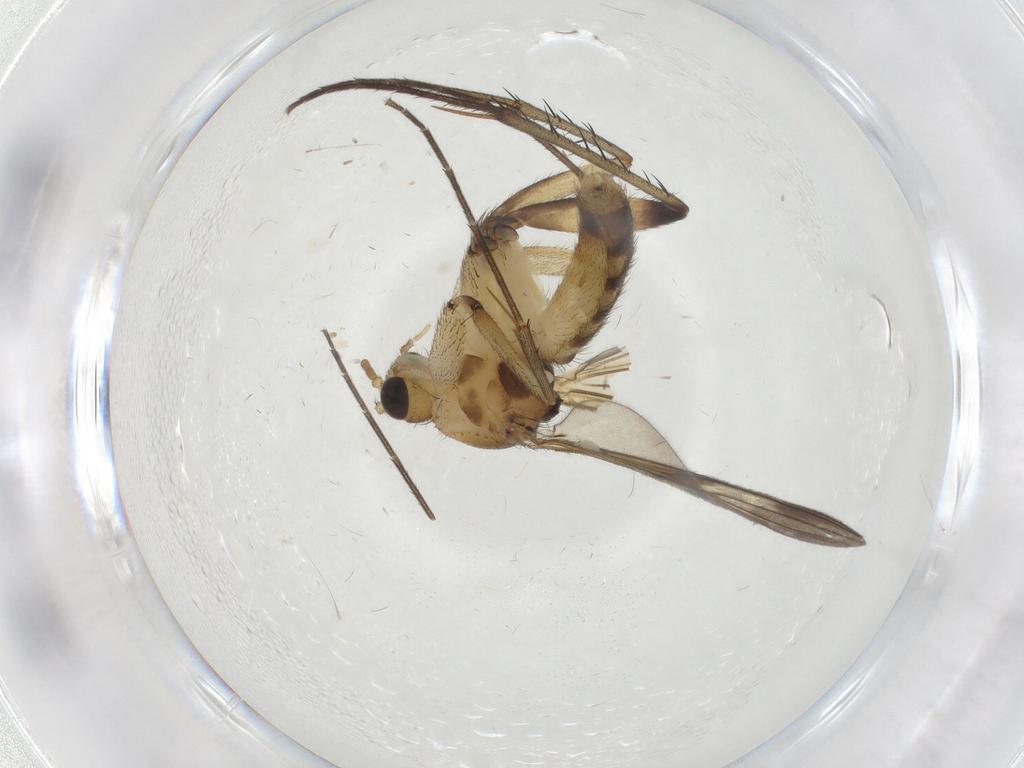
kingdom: Animalia
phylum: Arthropoda
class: Insecta
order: Diptera
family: Mycetophilidae
